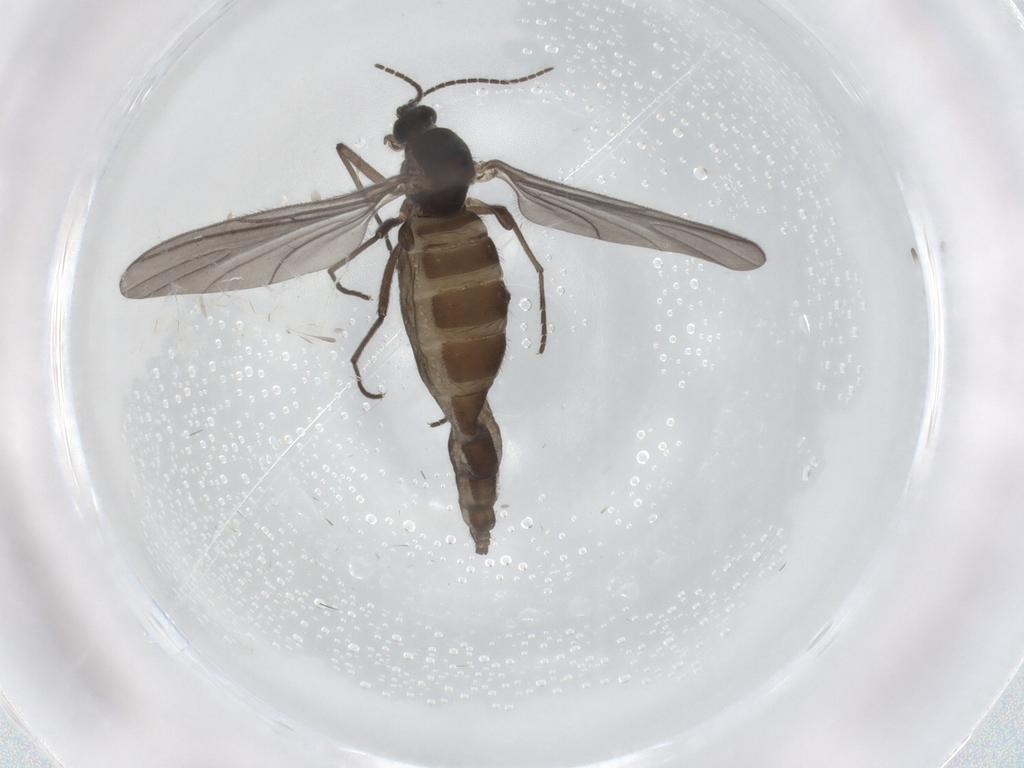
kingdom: Animalia
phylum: Arthropoda
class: Insecta
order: Diptera
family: Sciaridae
